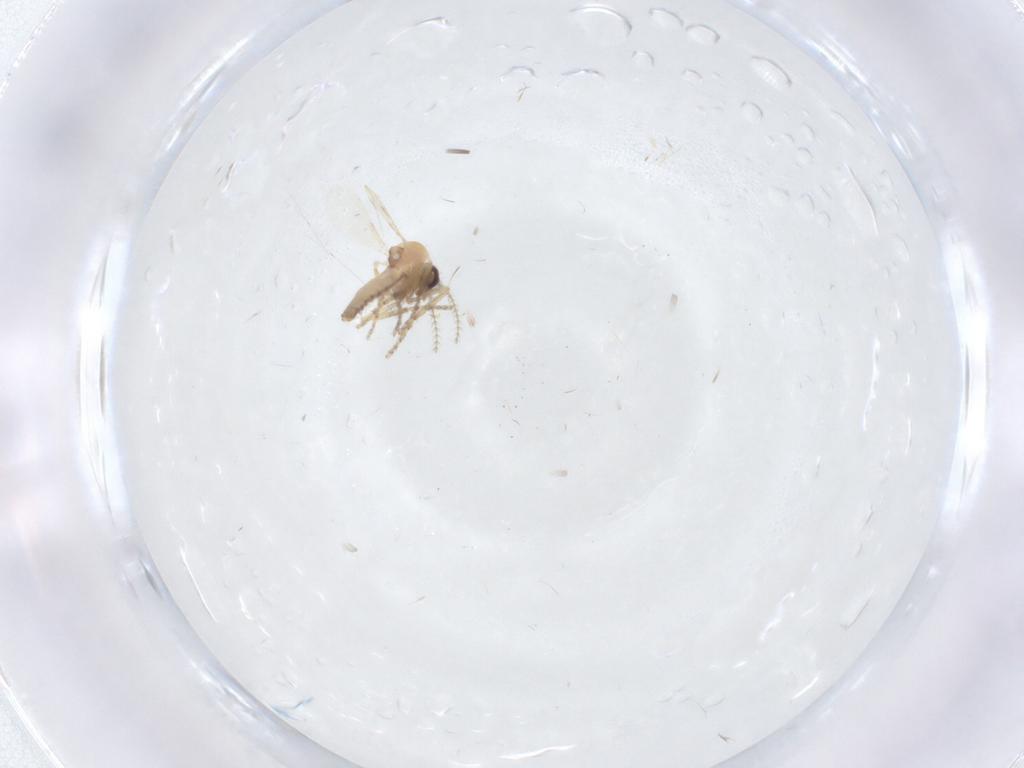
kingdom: Animalia
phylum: Arthropoda
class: Insecta
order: Diptera
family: Ceratopogonidae
